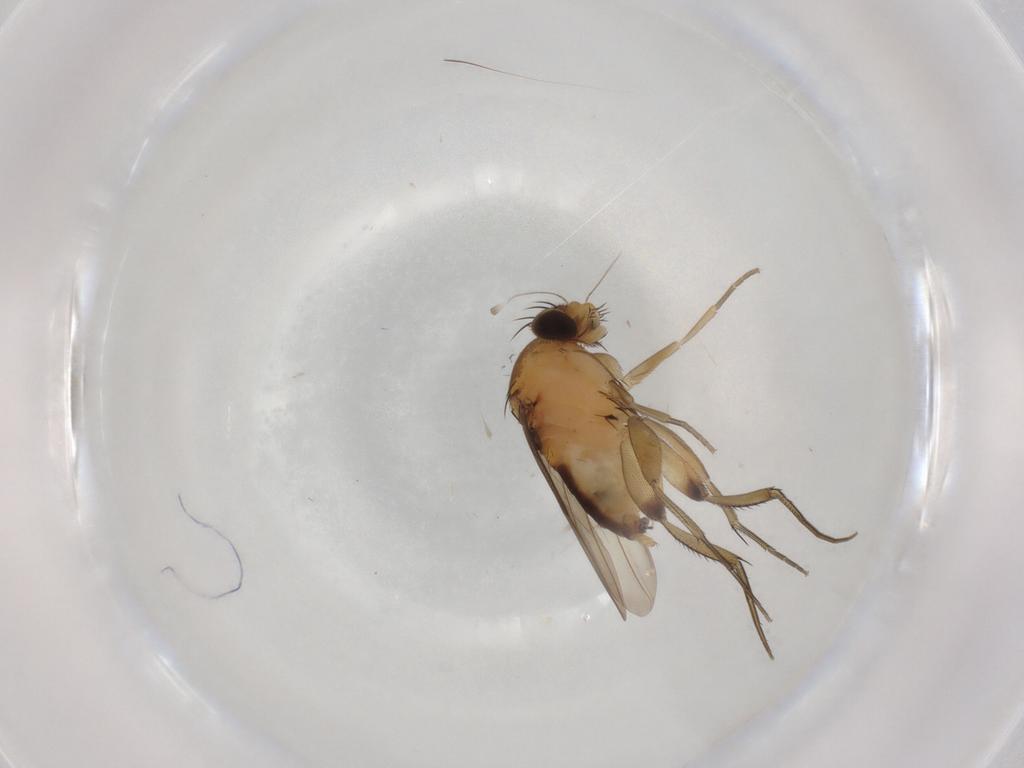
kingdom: Animalia
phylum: Arthropoda
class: Insecta
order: Diptera
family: Phoridae
